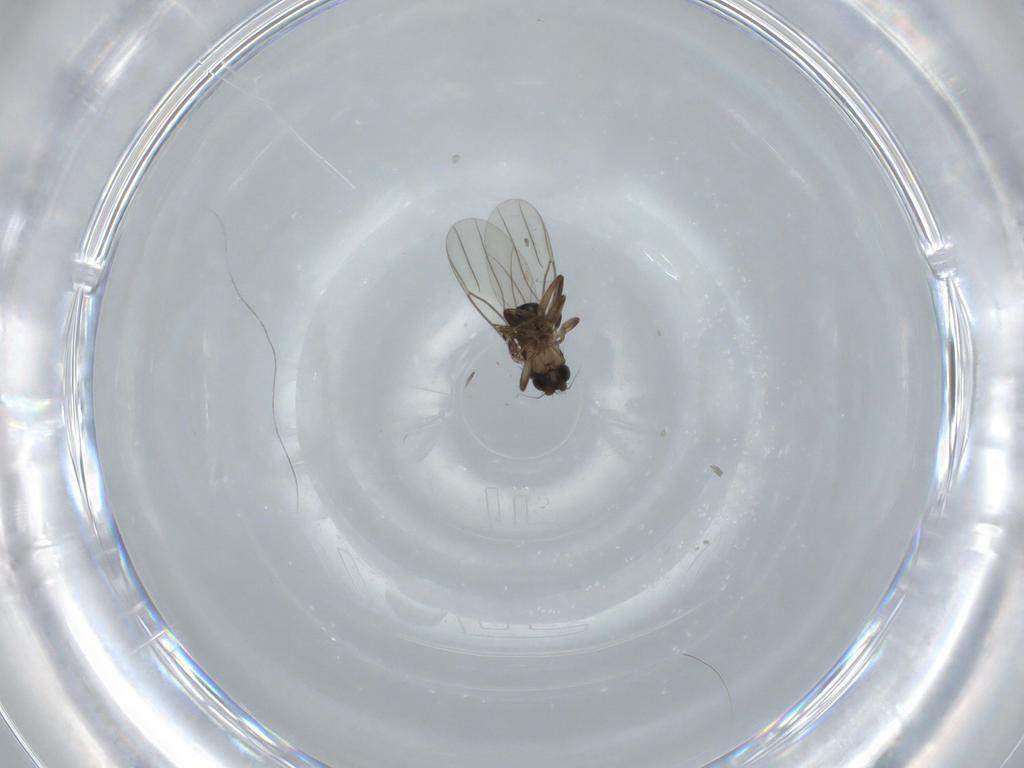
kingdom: Animalia
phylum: Arthropoda
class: Insecta
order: Diptera
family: Phoridae
